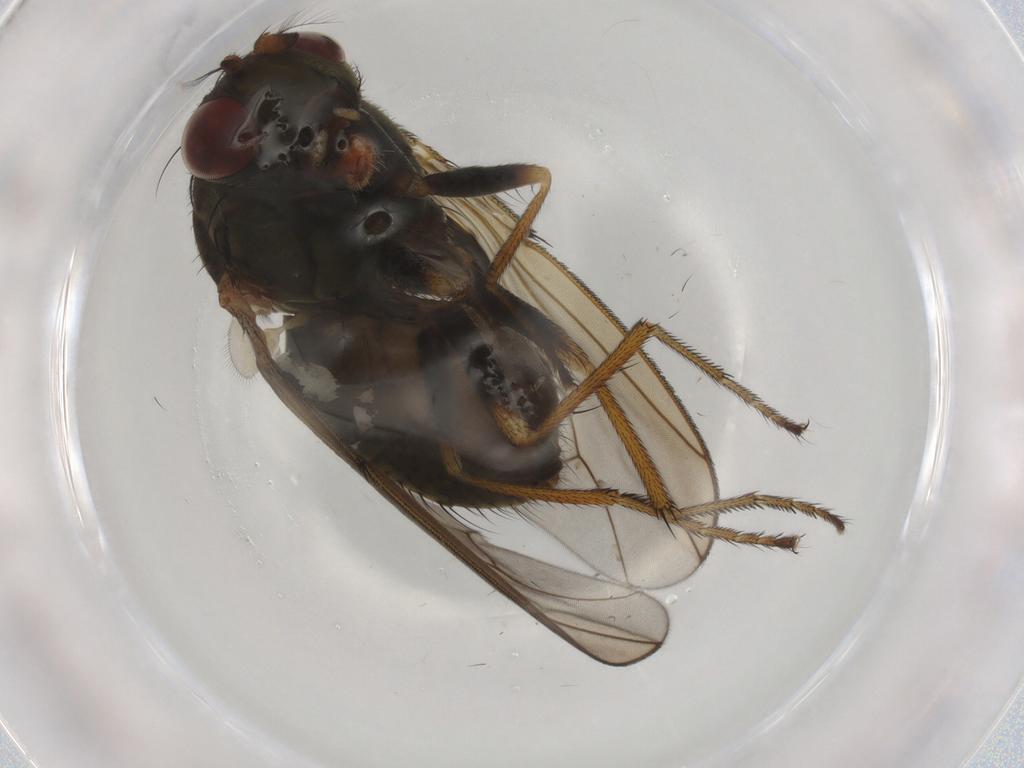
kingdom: Animalia
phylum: Arthropoda
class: Insecta
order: Diptera
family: Ephydridae
